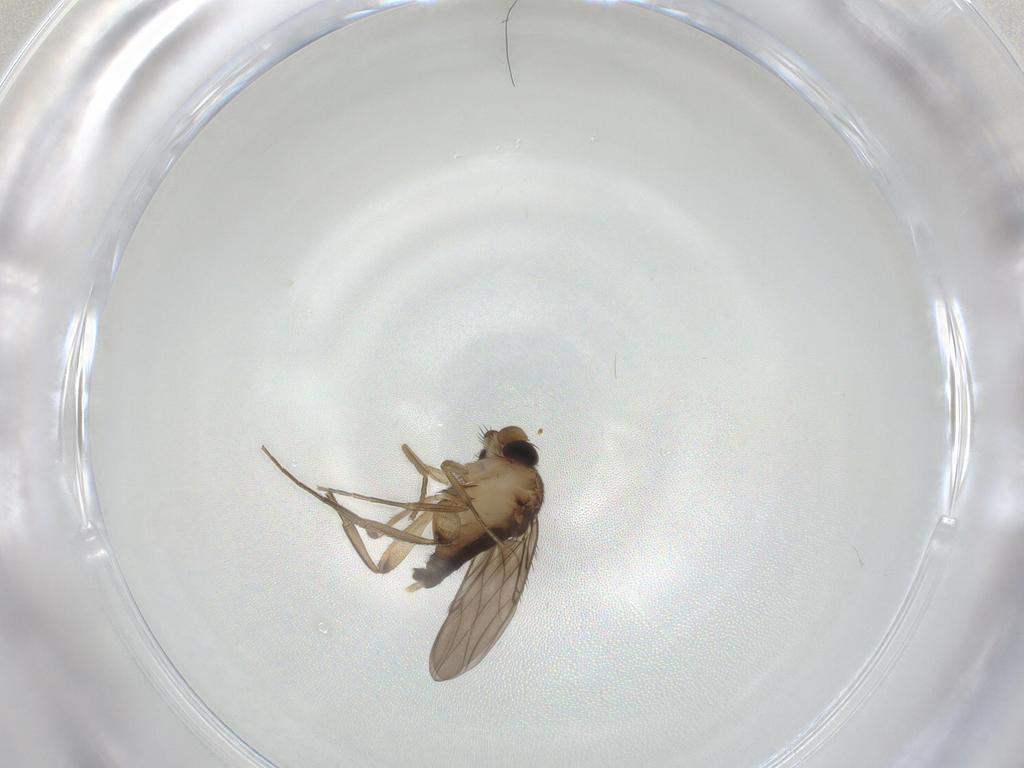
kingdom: Animalia
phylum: Arthropoda
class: Insecta
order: Diptera
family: Phoridae
